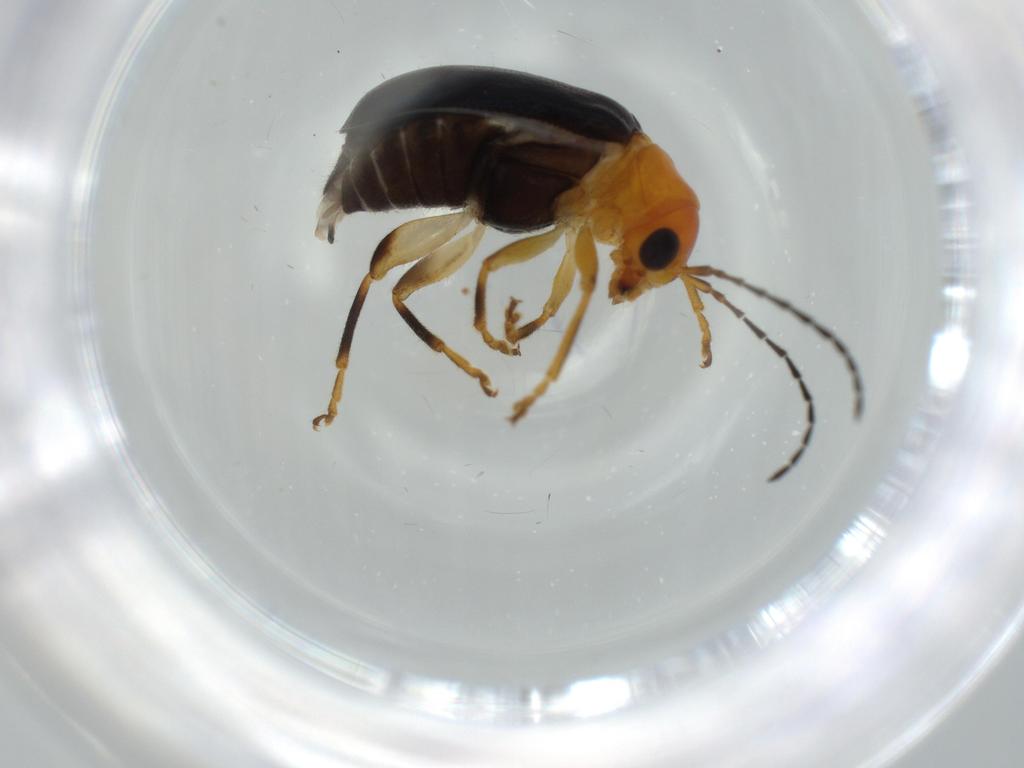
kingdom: Animalia
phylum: Arthropoda
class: Insecta
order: Coleoptera
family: Chrysomelidae
